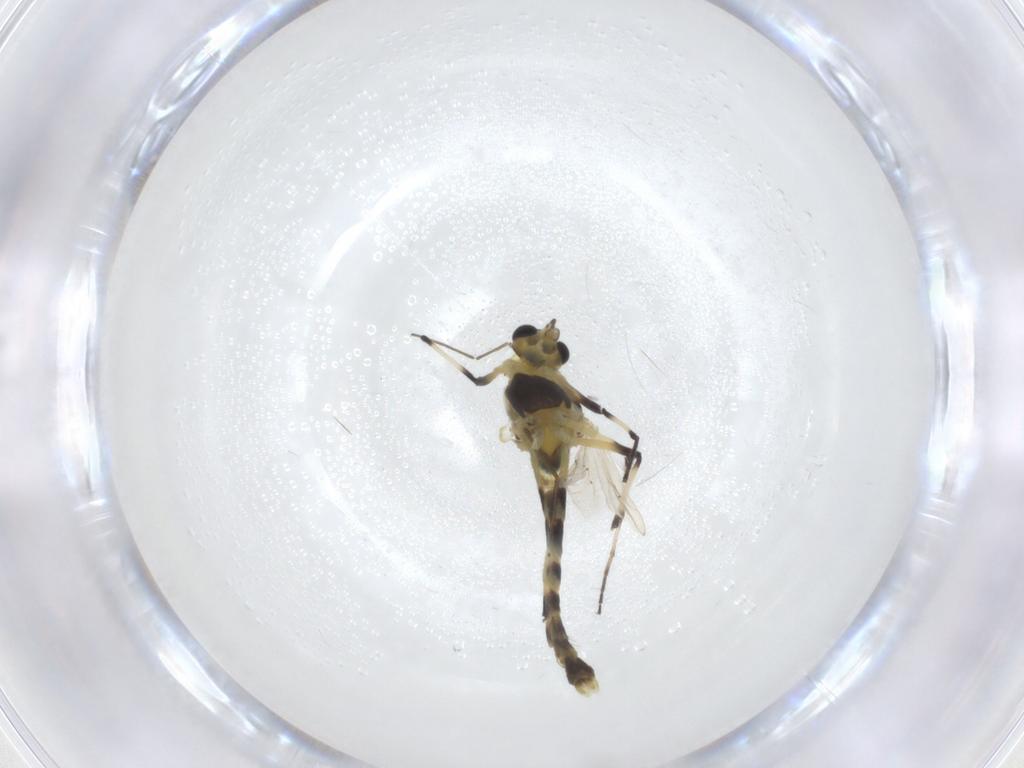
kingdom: Animalia
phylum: Arthropoda
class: Insecta
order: Diptera
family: Chironomidae
